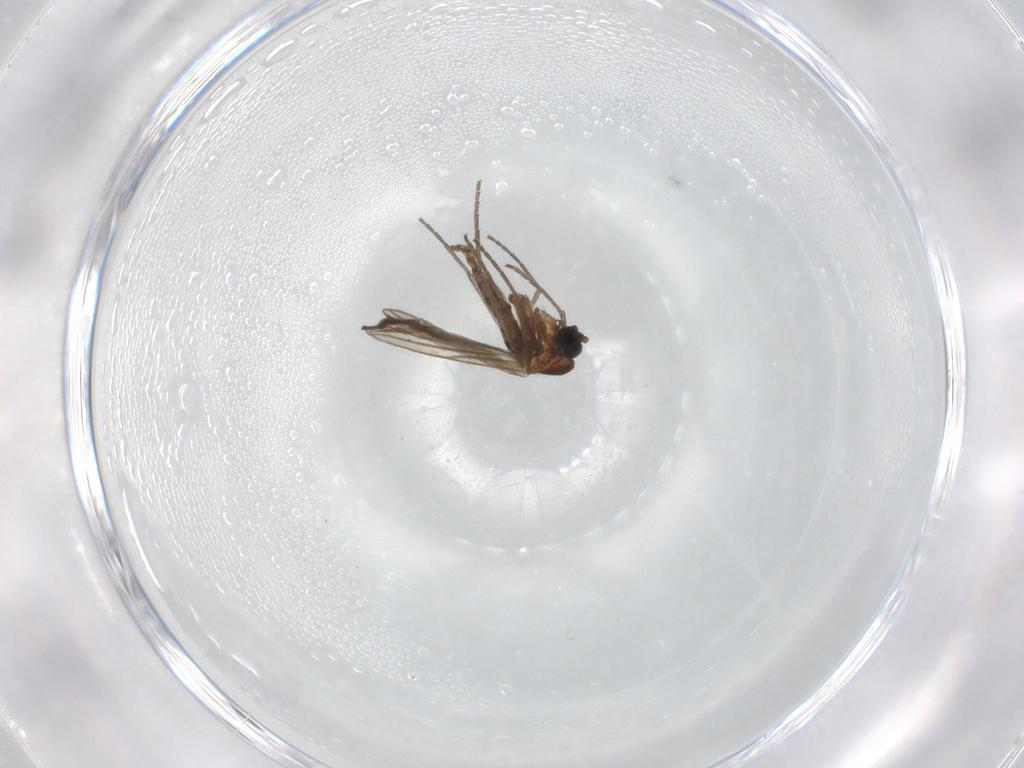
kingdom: Animalia
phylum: Arthropoda
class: Insecta
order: Diptera
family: Sciaridae
